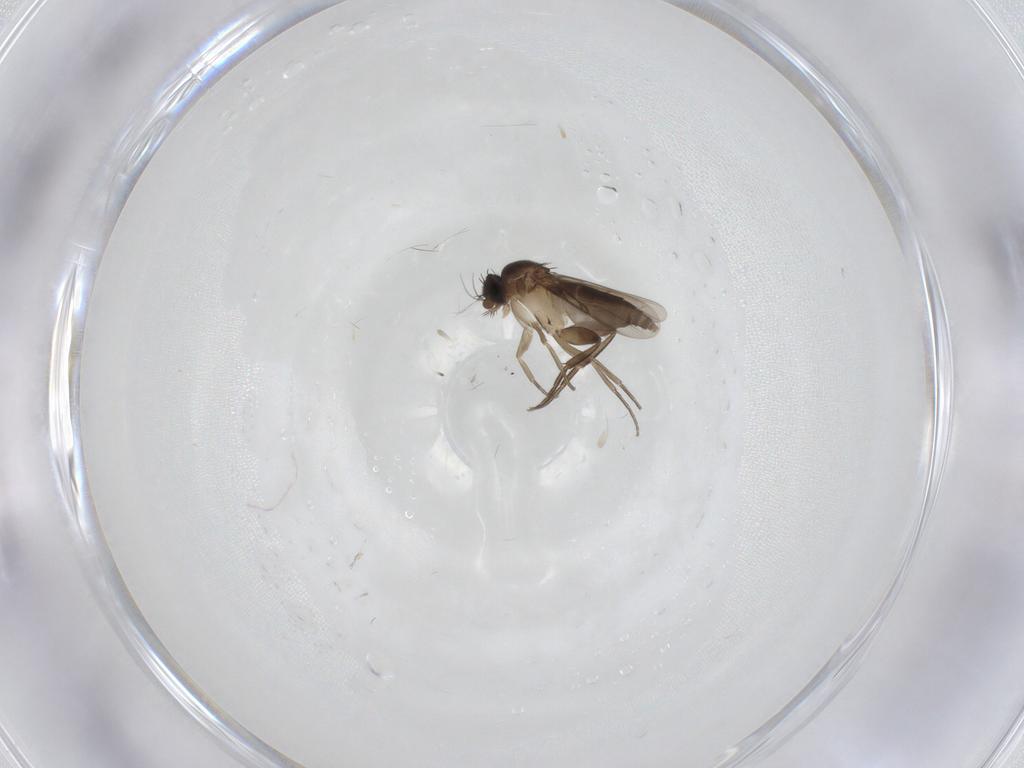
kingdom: Animalia
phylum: Arthropoda
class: Insecta
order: Diptera
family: Phoridae
